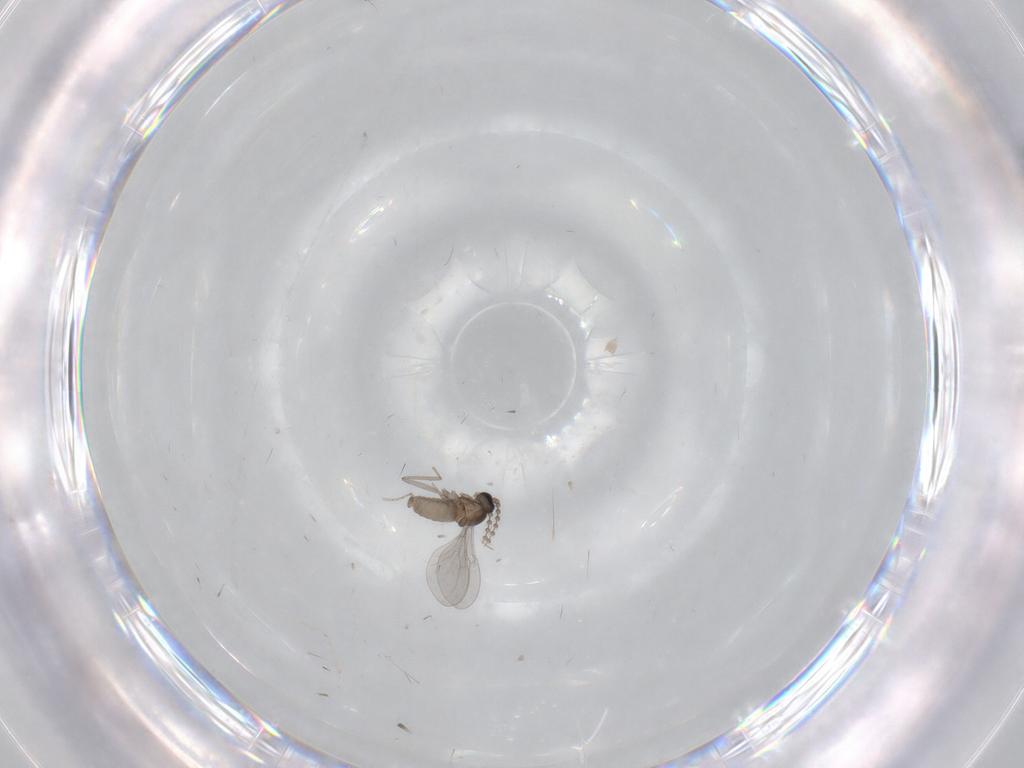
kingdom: Animalia
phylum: Arthropoda
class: Insecta
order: Diptera
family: Cecidomyiidae
